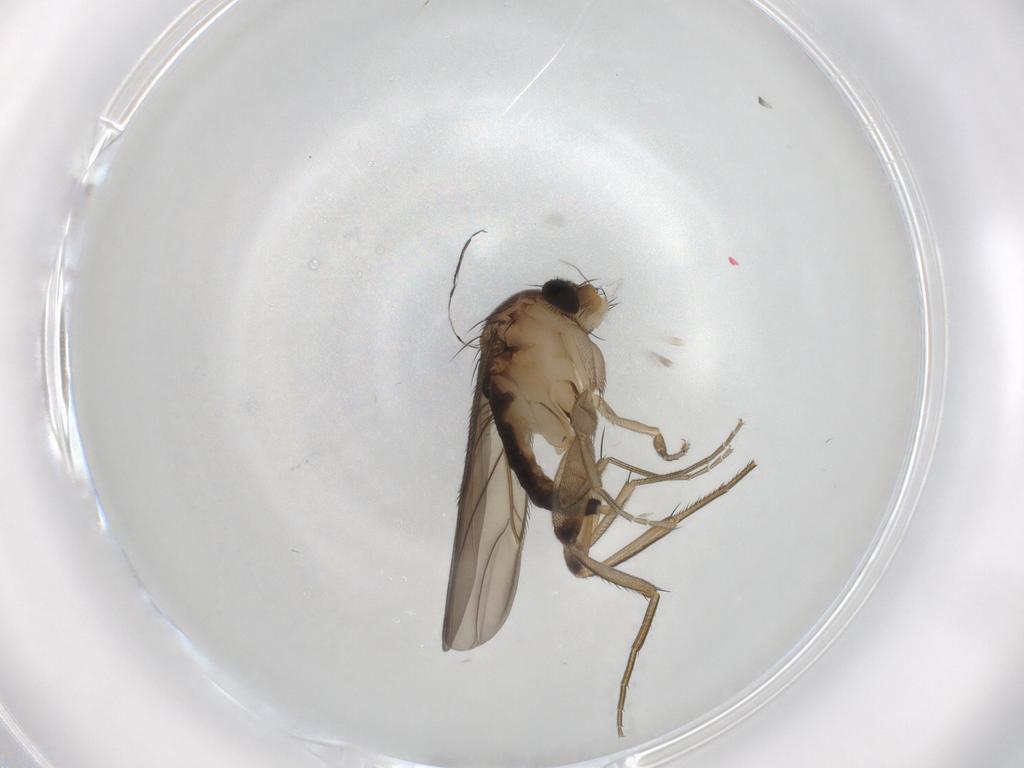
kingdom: Animalia
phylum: Arthropoda
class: Insecta
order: Diptera
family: Phoridae
